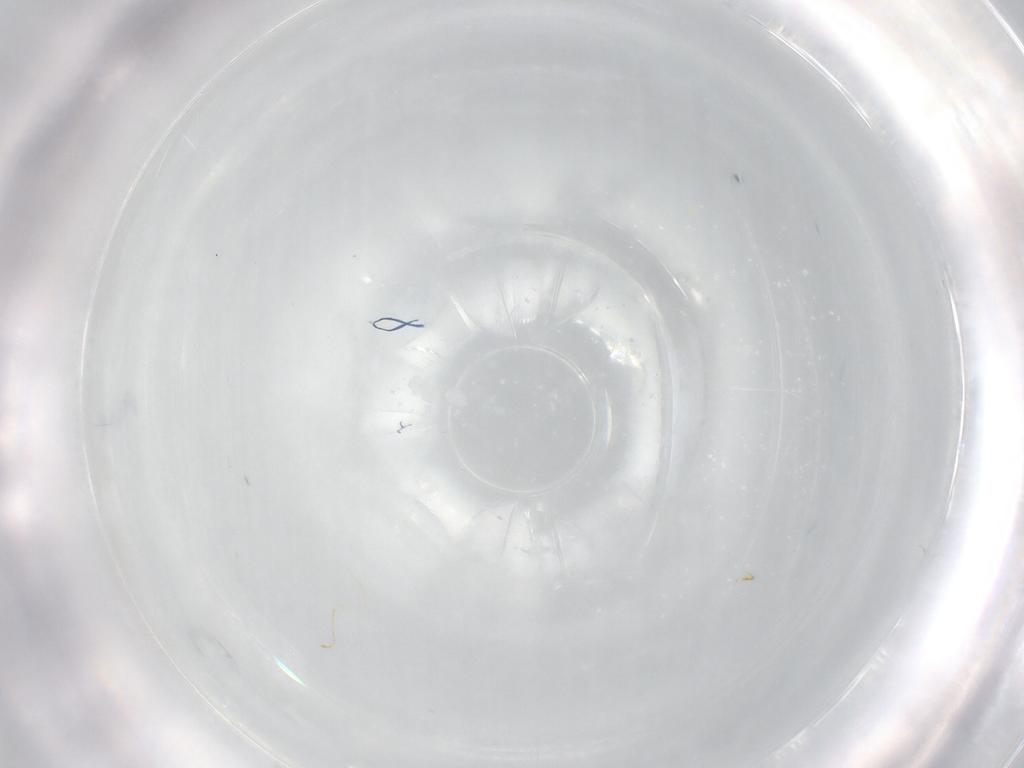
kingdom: Animalia
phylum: Arthropoda
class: Insecta
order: Diptera
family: Cecidomyiidae
